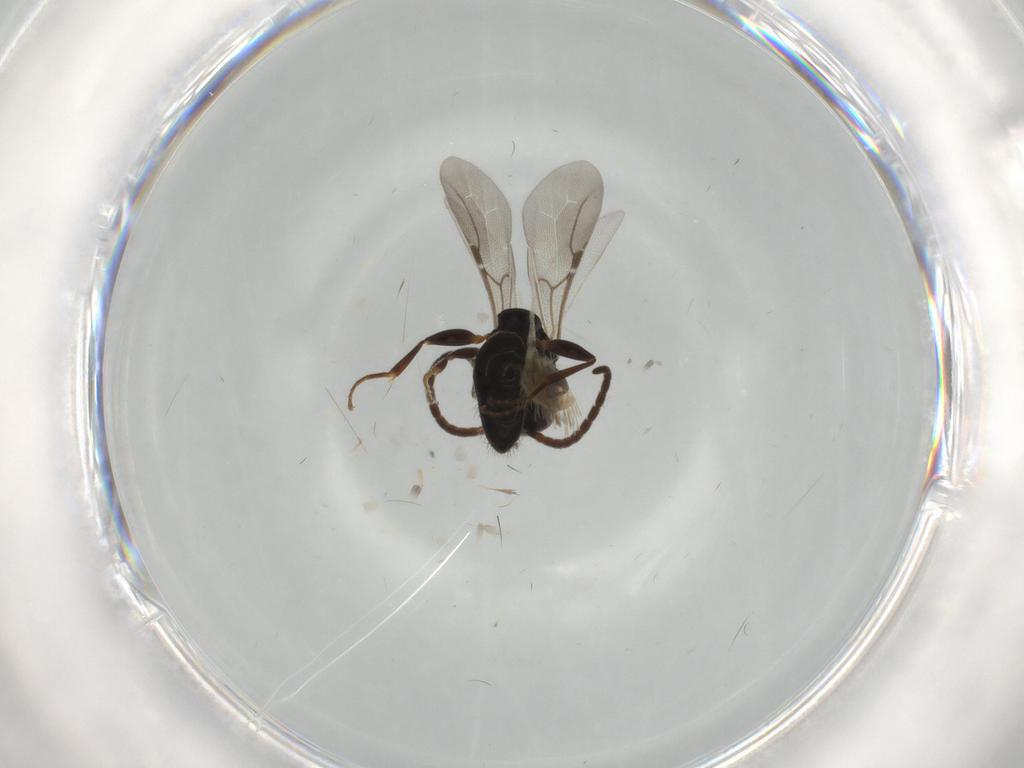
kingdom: Animalia
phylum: Arthropoda
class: Insecta
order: Hymenoptera
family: Bethylidae
